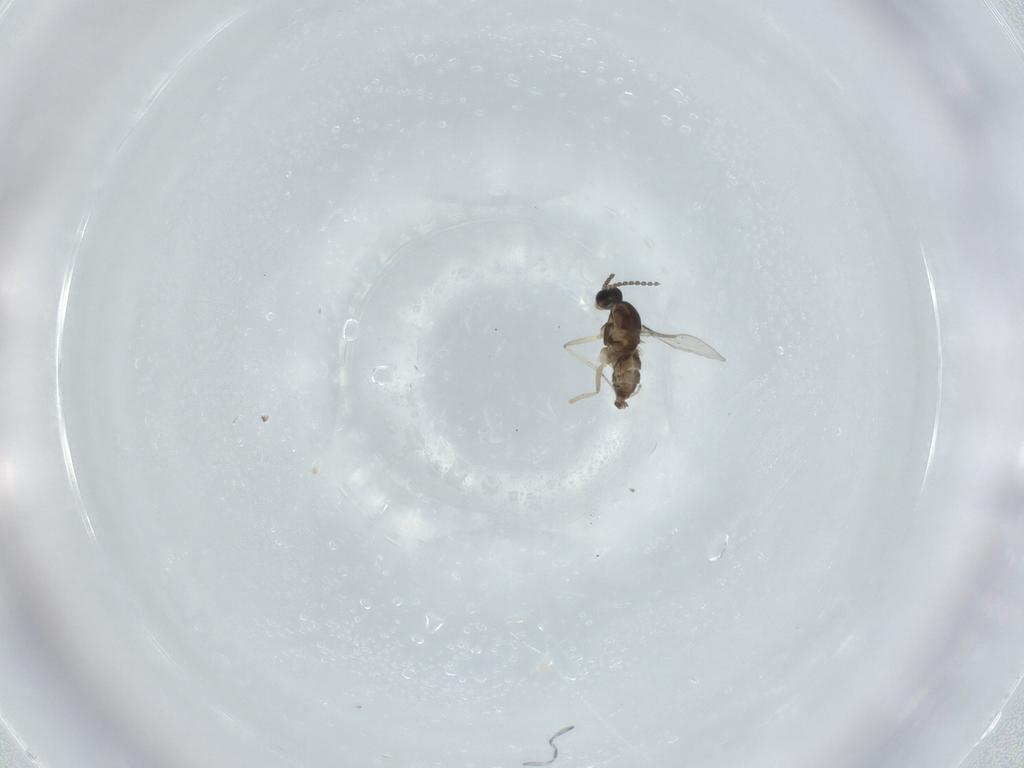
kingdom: Animalia
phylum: Arthropoda
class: Insecta
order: Diptera
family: Cecidomyiidae
